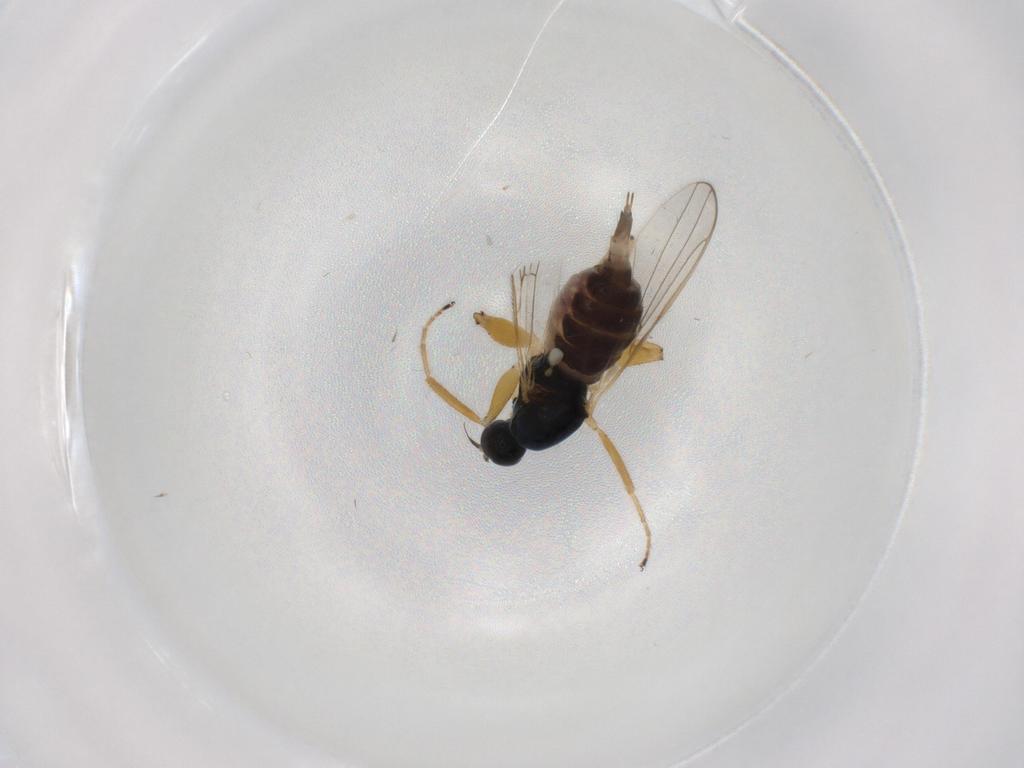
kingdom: Animalia
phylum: Arthropoda
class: Insecta
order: Diptera
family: Hybotidae
